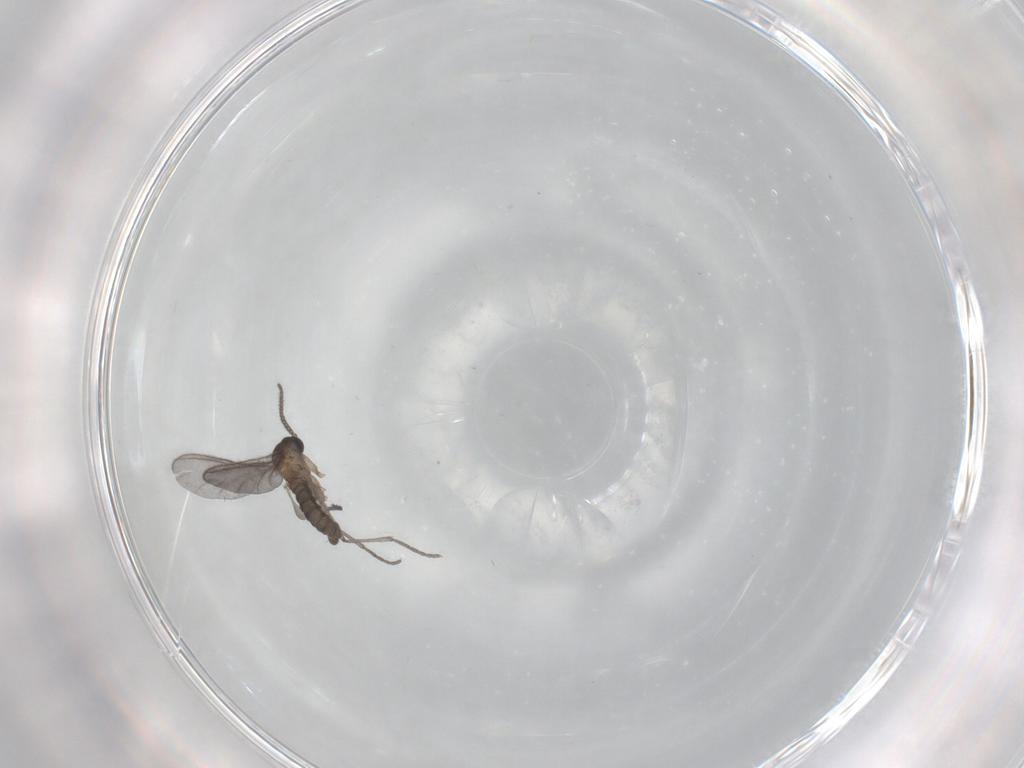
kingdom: Animalia
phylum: Arthropoda
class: Insecta
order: Diptera
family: Sciaridae
